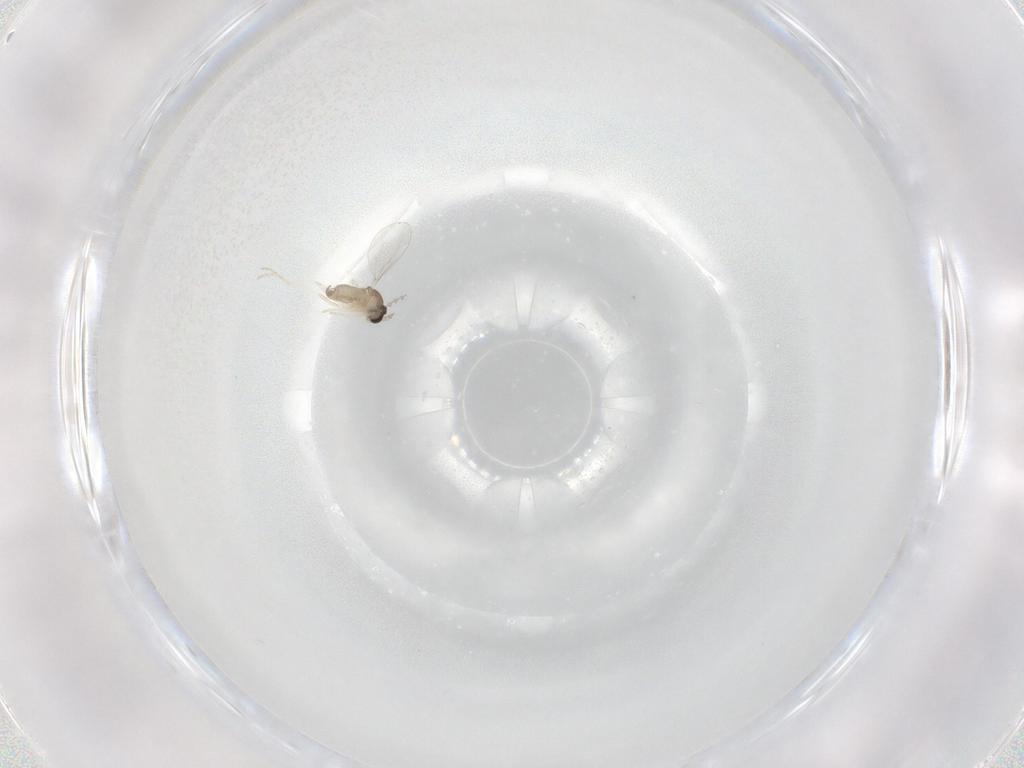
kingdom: Animalia
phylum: Arthropoda
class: Insecta
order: Diptera
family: Cecidomyiidae
